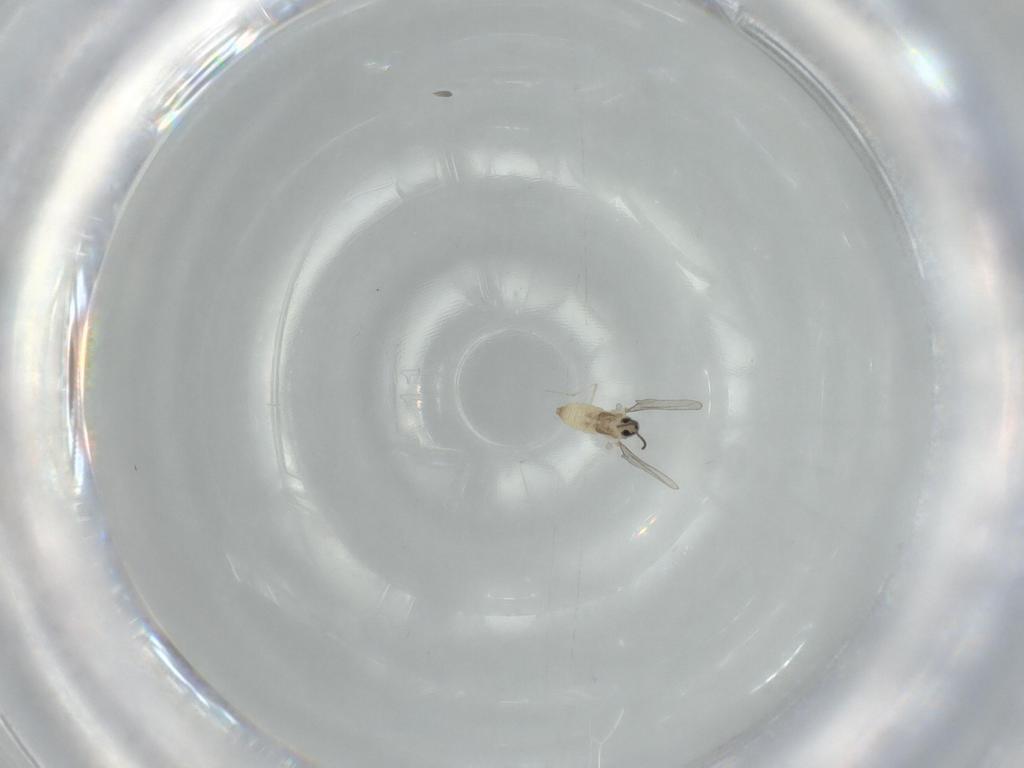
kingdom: Animalia
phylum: Arthropoda
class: Insecta
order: Diptera
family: Cecidomyiidae
